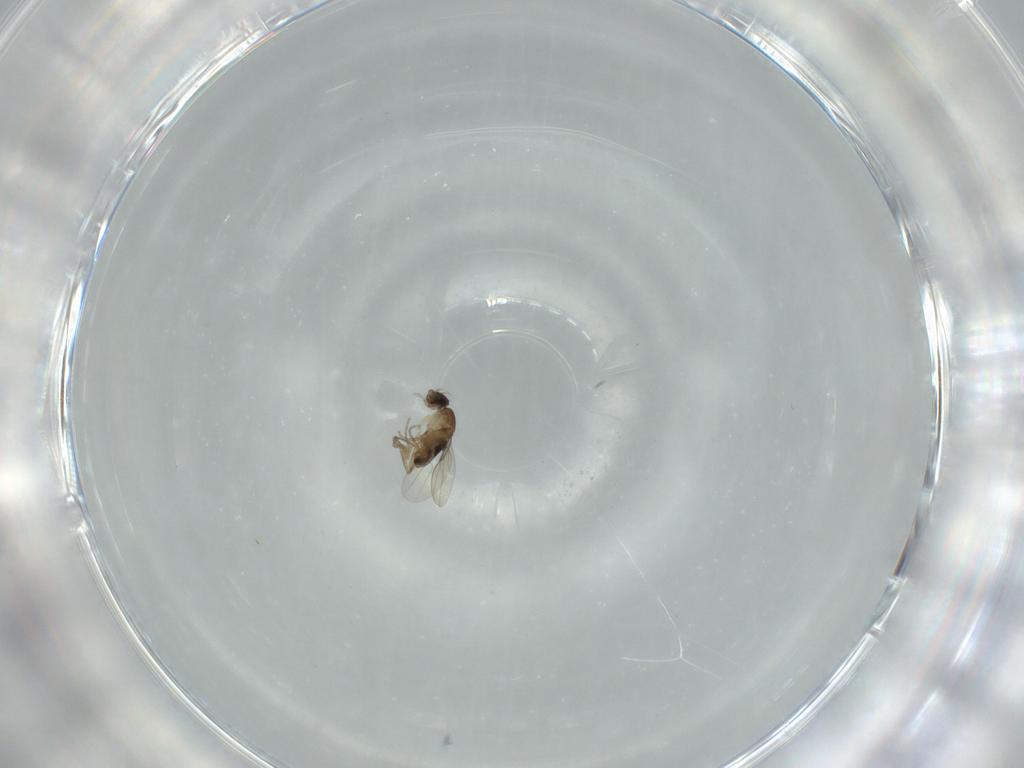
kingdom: Animalia
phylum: Arthropoda
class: Insecta
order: Diptera
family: Phoridae
